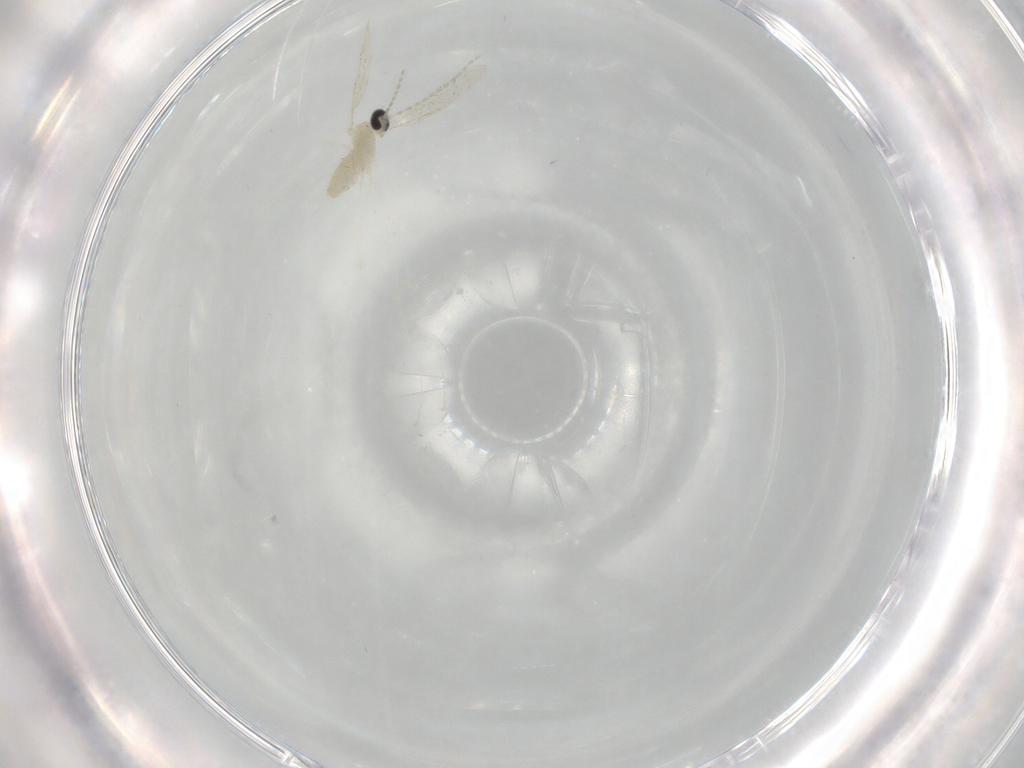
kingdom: Animalia
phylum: Arthropoda
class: Insecta
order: Diptera
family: Cecidomyiidae
